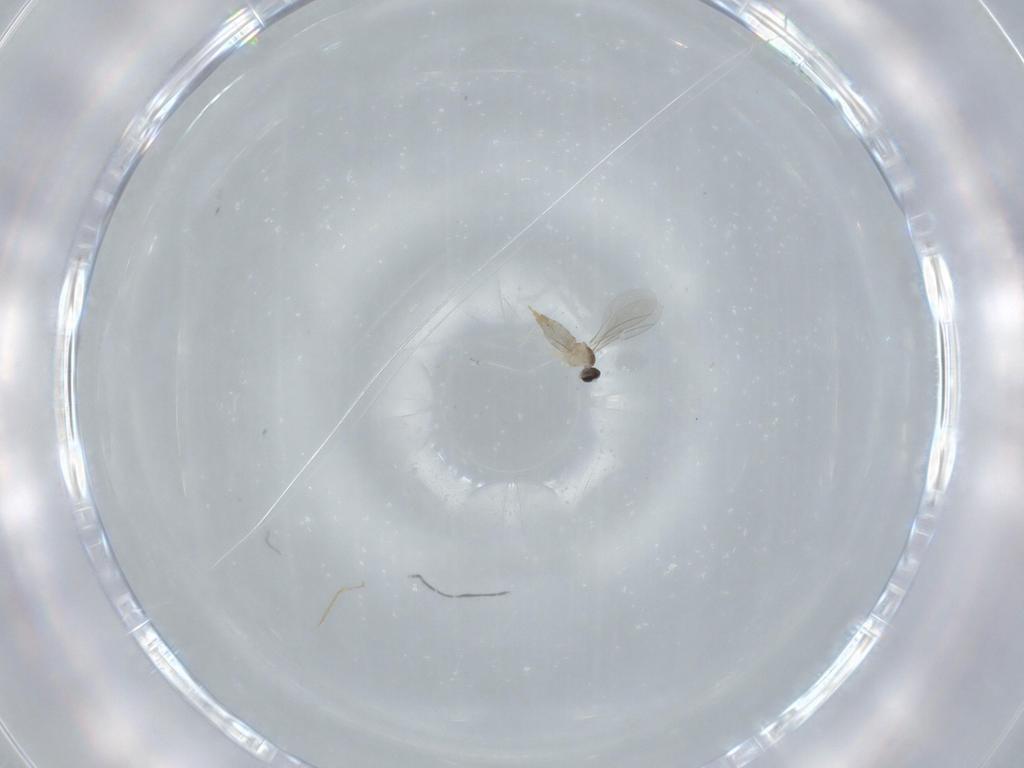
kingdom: Animalia
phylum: Arthropoda
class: Insecta
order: Diptera
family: Cecidomyiidae
